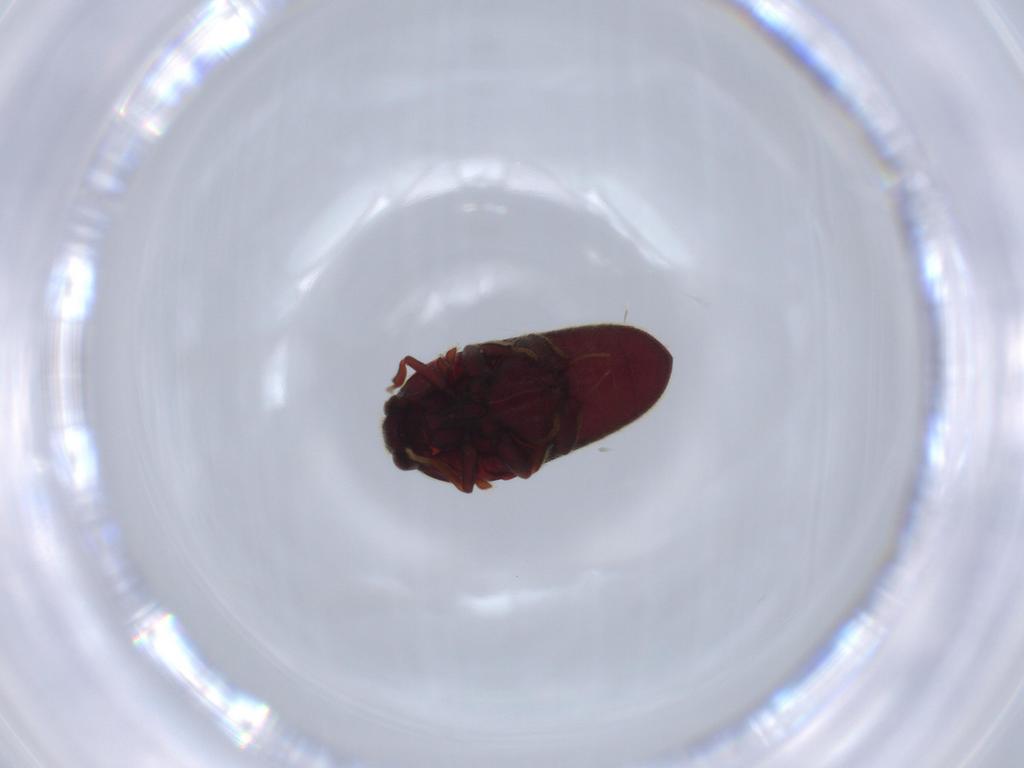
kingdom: Animalia
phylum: Arthropoda
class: Insecta
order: Coleoptera
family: Throscidae
